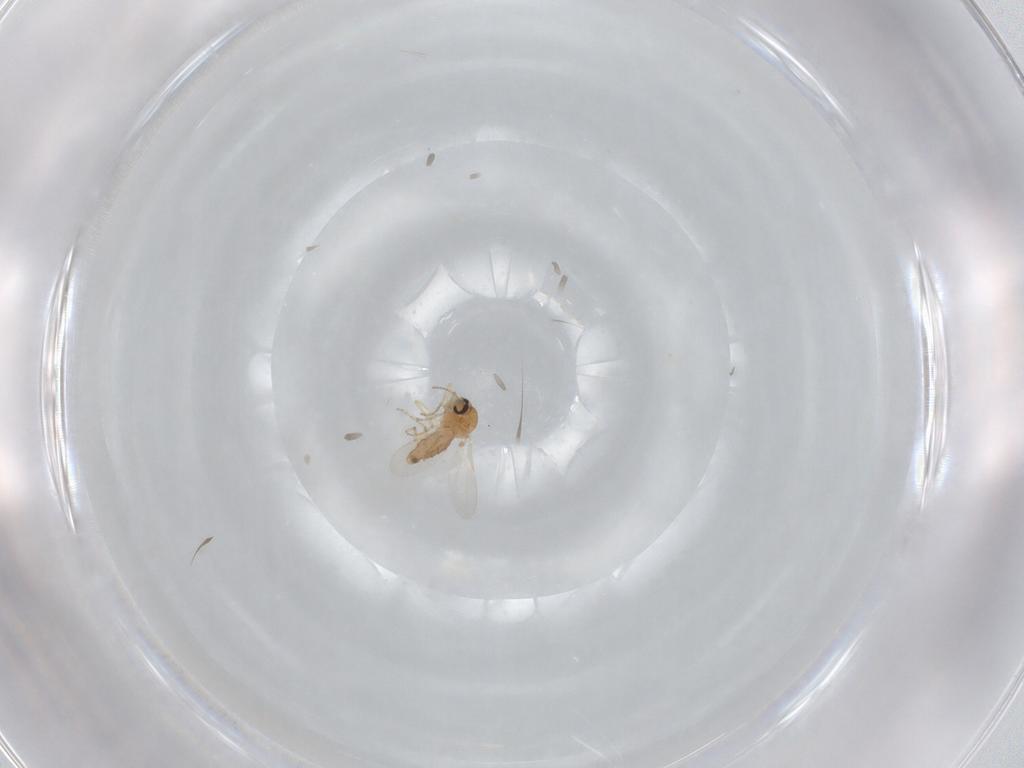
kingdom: Animalia
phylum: Arthropoda
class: Insecta
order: Diptera
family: Ceratopogonidae
